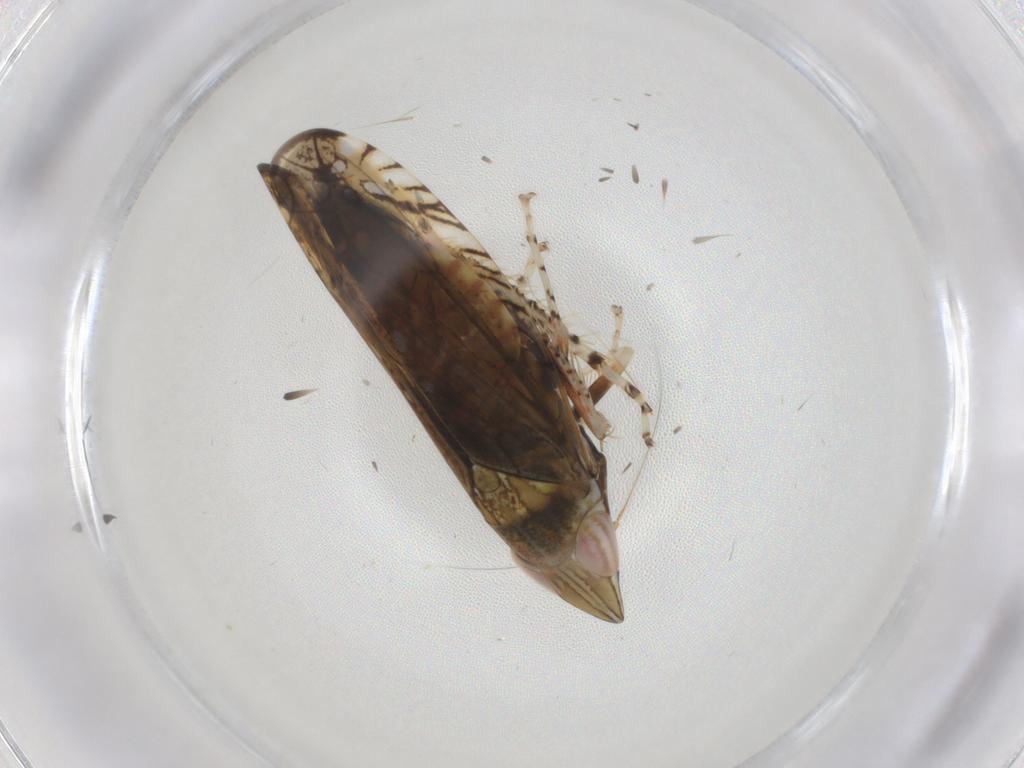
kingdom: Animalia
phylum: Arthropoda
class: Insecta
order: Hemiptera
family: Cicadellidae
